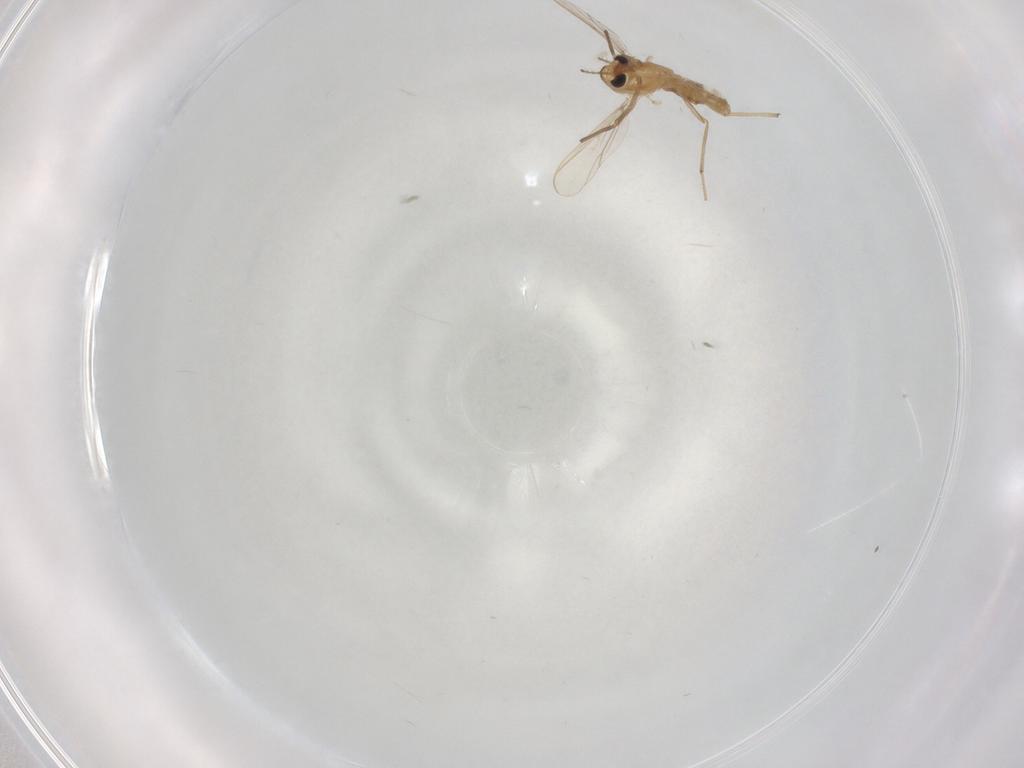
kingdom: Animalia
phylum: Arthropoda
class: Insecta
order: Diptera
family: Chironomidae
